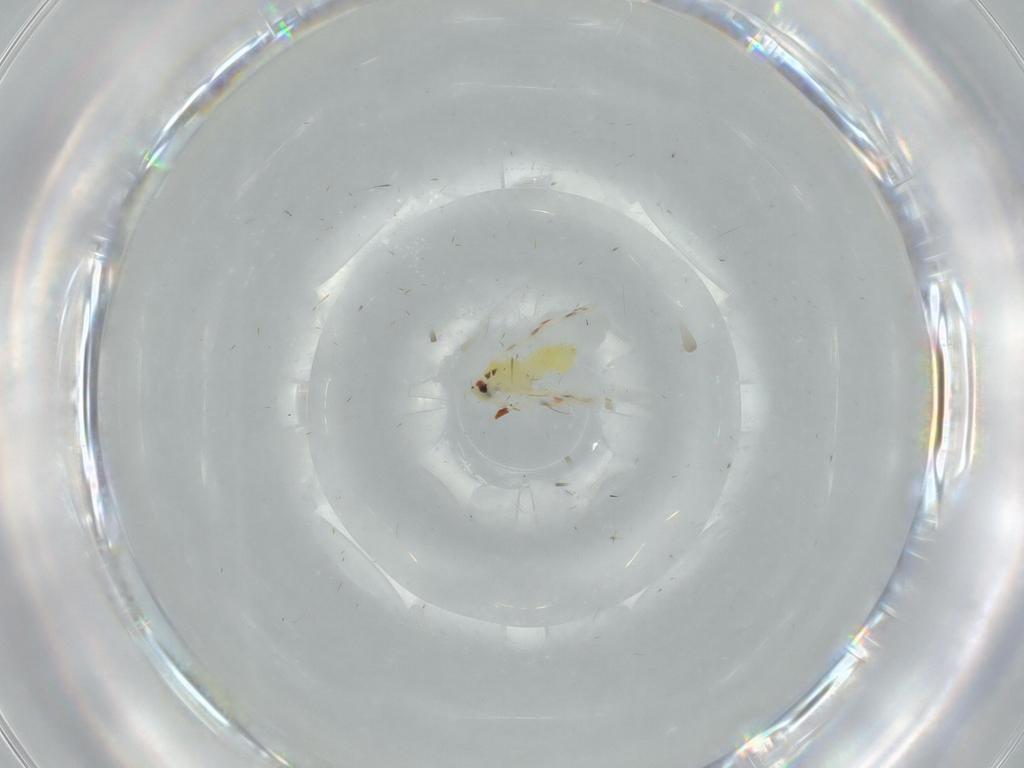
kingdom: Animalia
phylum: Arthropoda
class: Insecta
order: Hemiptera
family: Aleyrodidae
